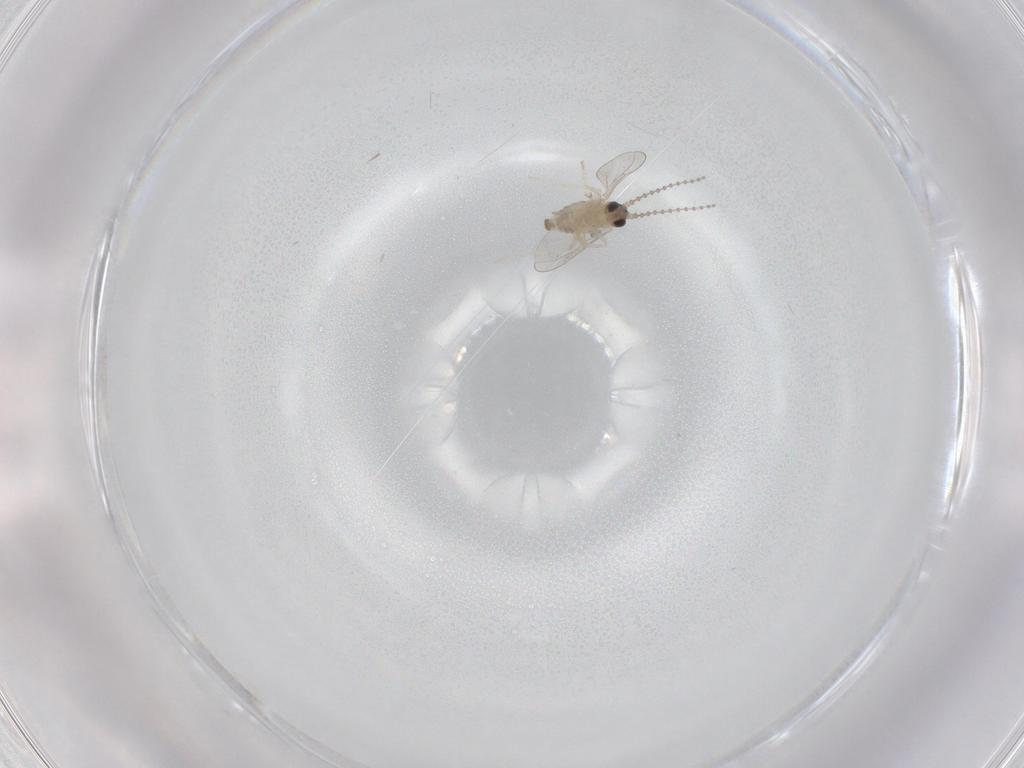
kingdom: Animalia
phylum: Arthropoda
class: Insecta
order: Diptera
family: Cecidomyiidae
